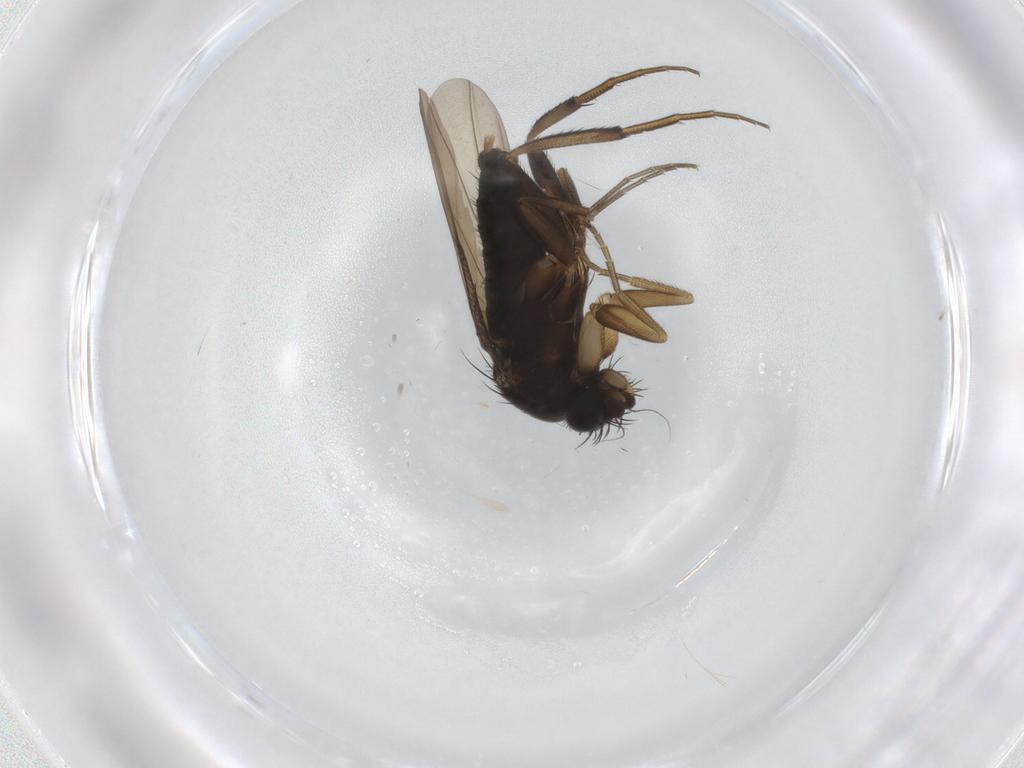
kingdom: Animalia
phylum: Arthropoda
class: Insecta
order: Diptera
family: Phoridae
